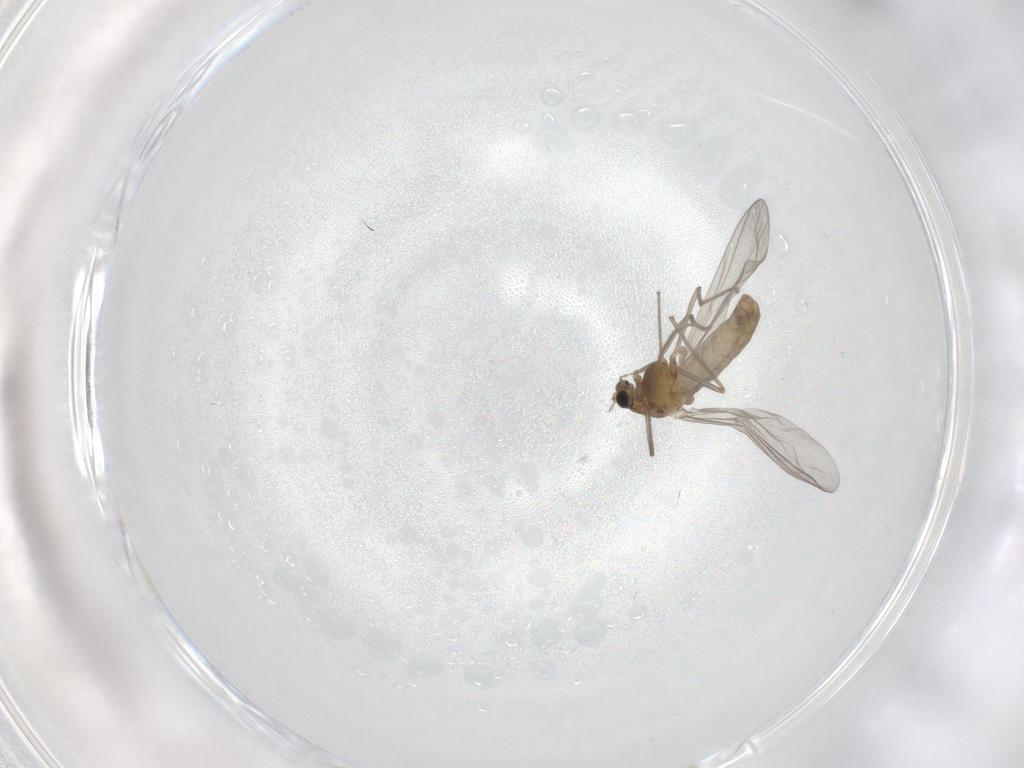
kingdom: Animalia
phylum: Arthropoda
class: Insecta
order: Diptera
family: Chironomidae
